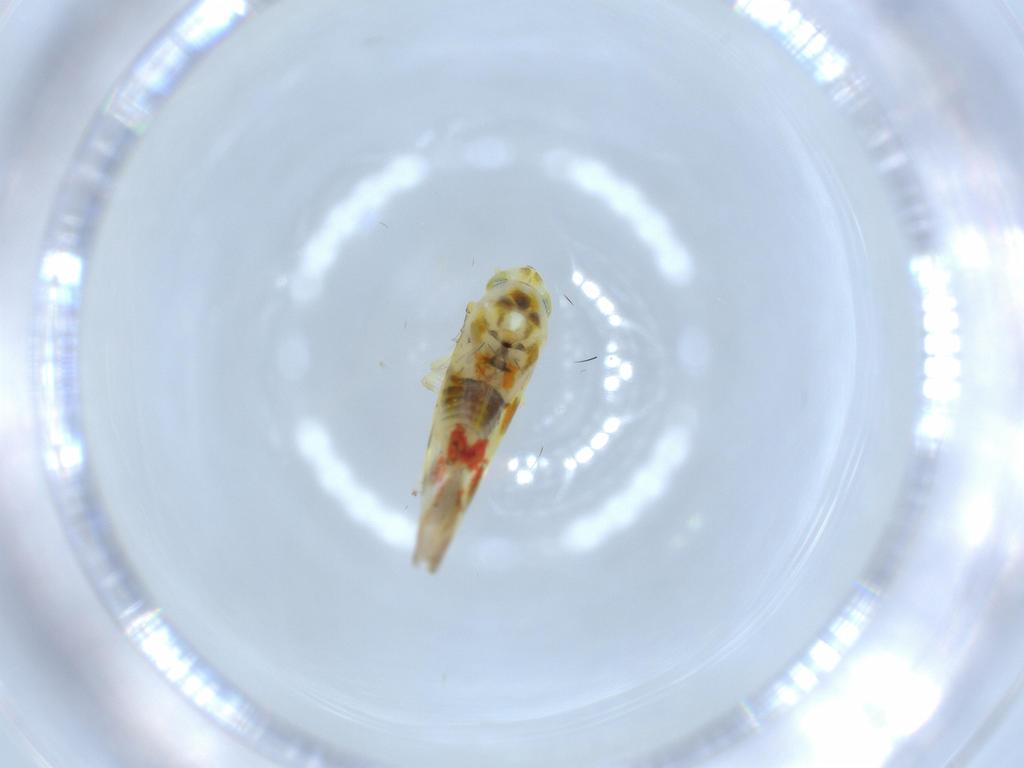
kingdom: Animalia
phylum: Arthropoda
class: Insecta
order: Hemiptera
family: Cicadellidae
